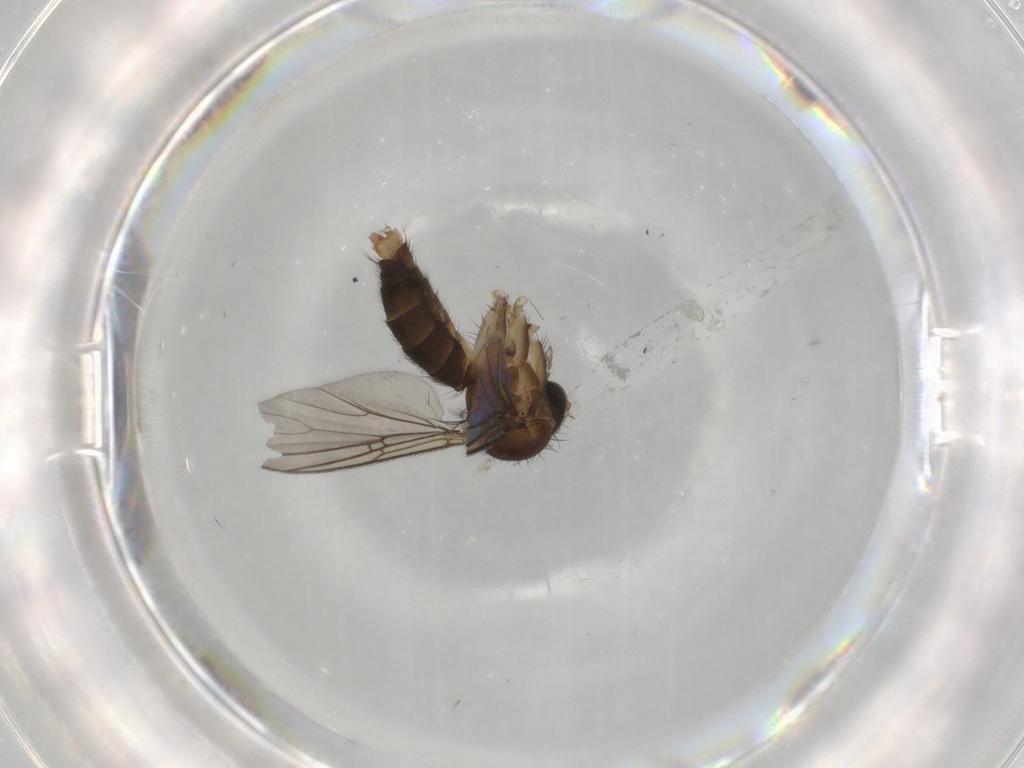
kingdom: Animalia
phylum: Arthropoda
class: Insecta
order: Diptera
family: Mycetophilidae
